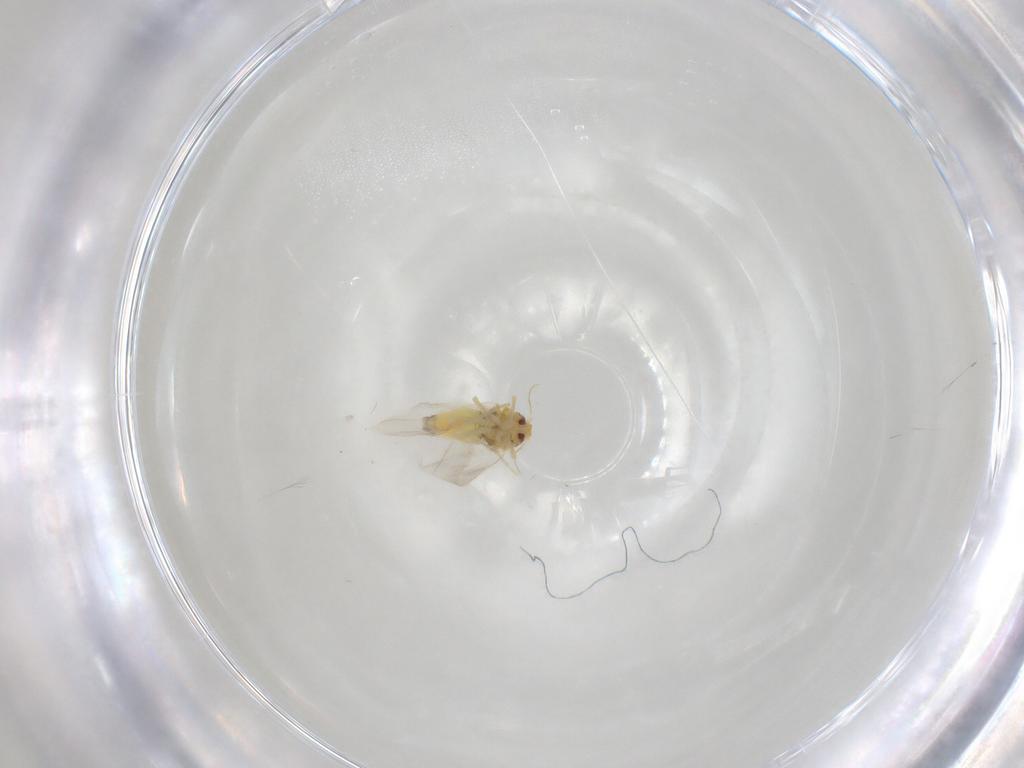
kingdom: Animalia
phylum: Arthropoda
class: Insecta
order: Hemiptera
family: Aleyrodidae
